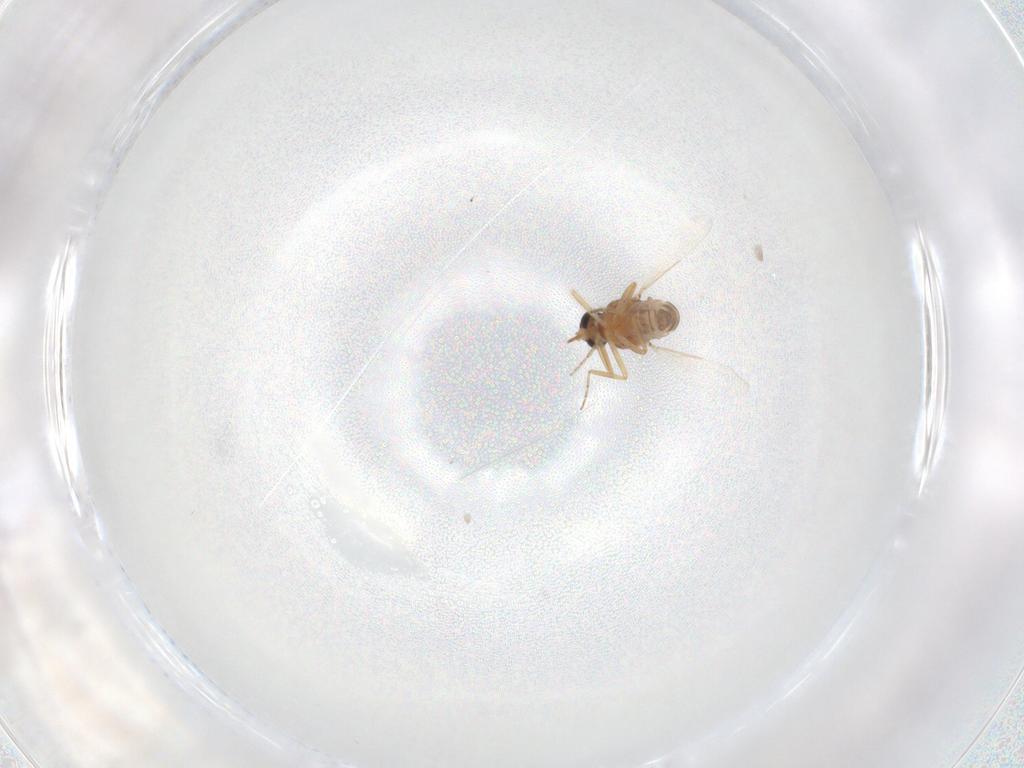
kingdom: Animalia
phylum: Arthropoda
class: Insecta
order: Diptera
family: Ceratopogonidae
